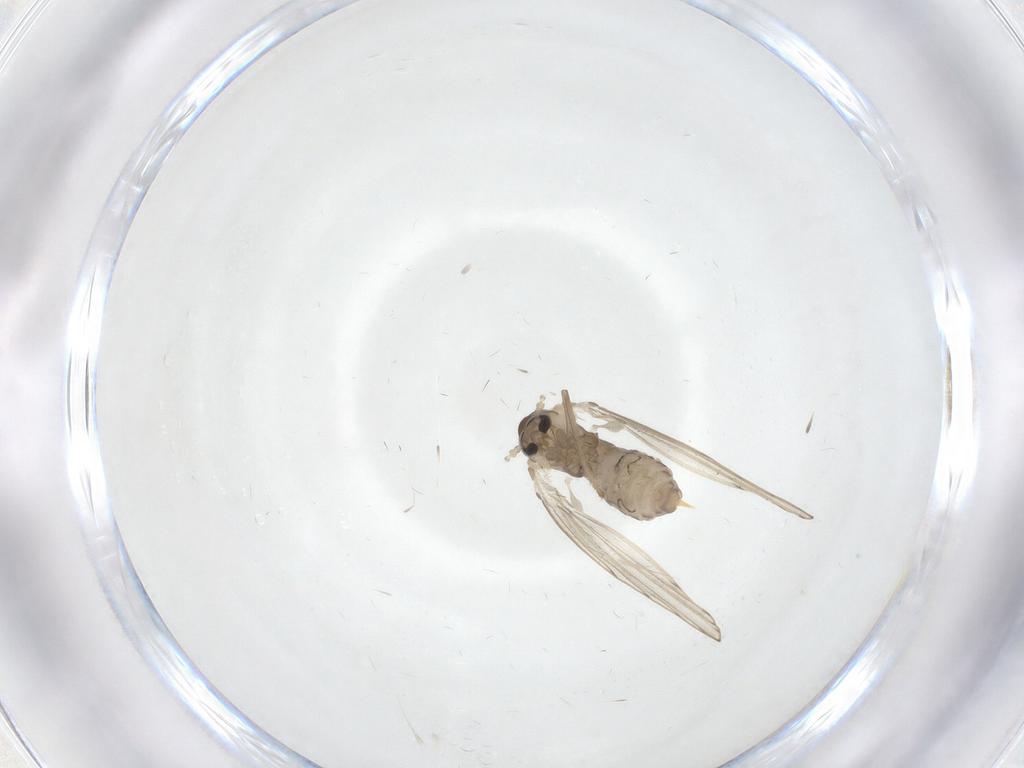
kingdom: Animalia
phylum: Arthropoda
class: Insecta
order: Diptera
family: Psychodidae
